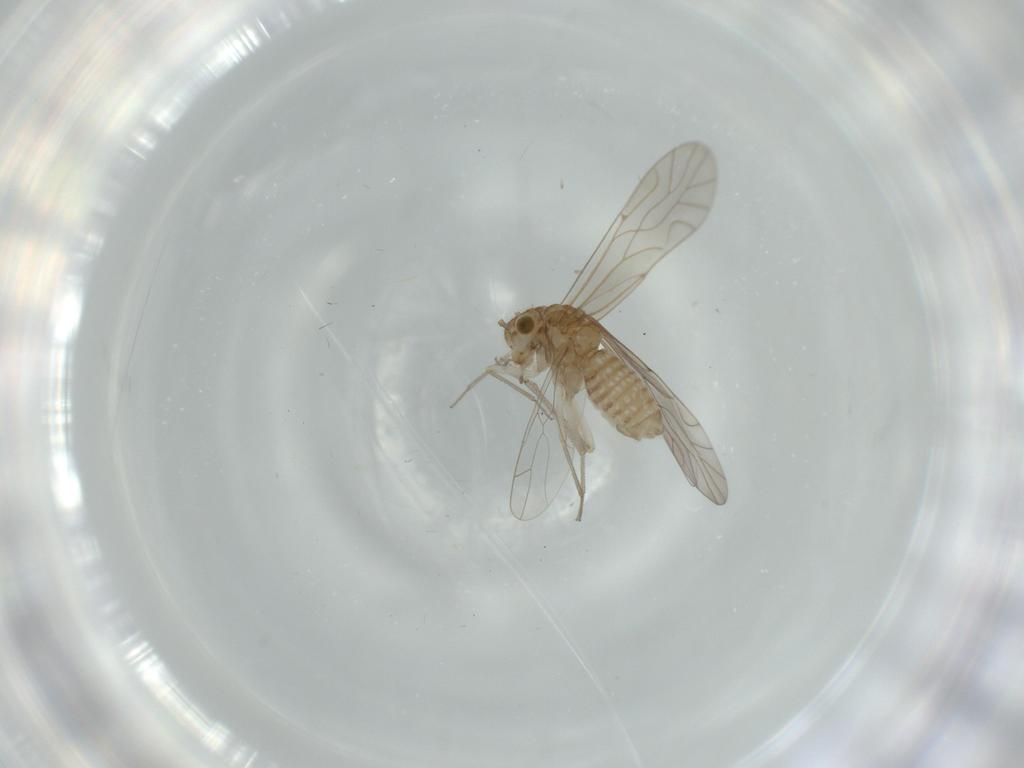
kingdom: Animalia
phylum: Arthropoda
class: Insecta
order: Psocodea
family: Lachesillidae
